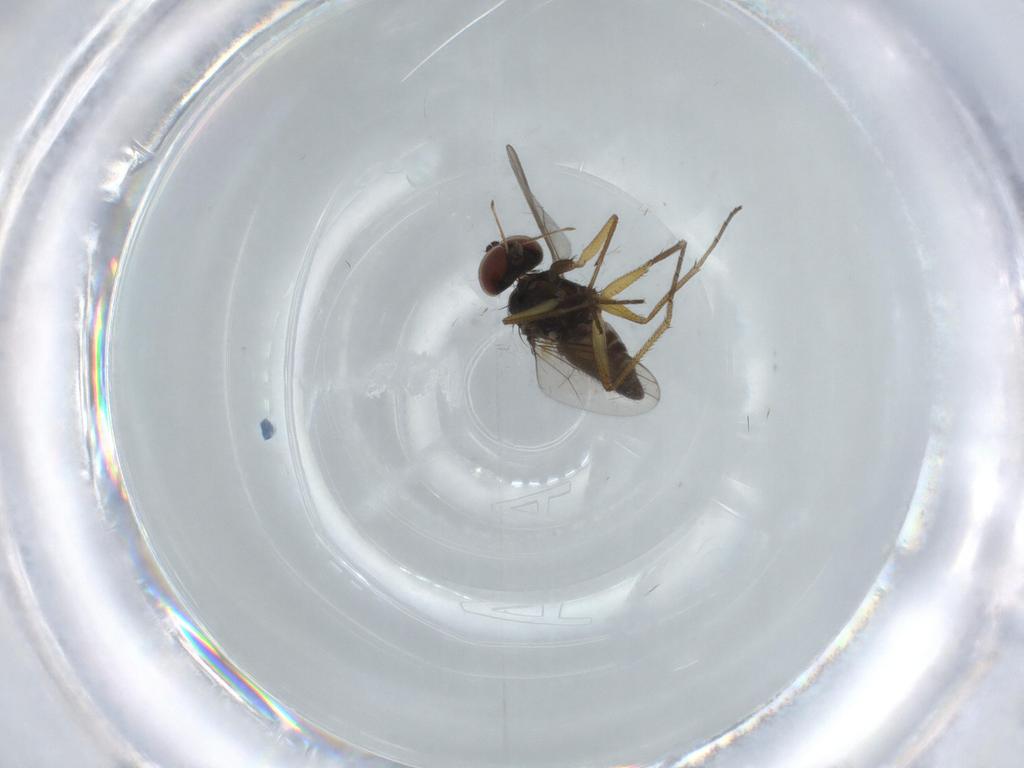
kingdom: Animalia
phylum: Arthropoda
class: Insecta
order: Diptera
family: Dolichopodidae
